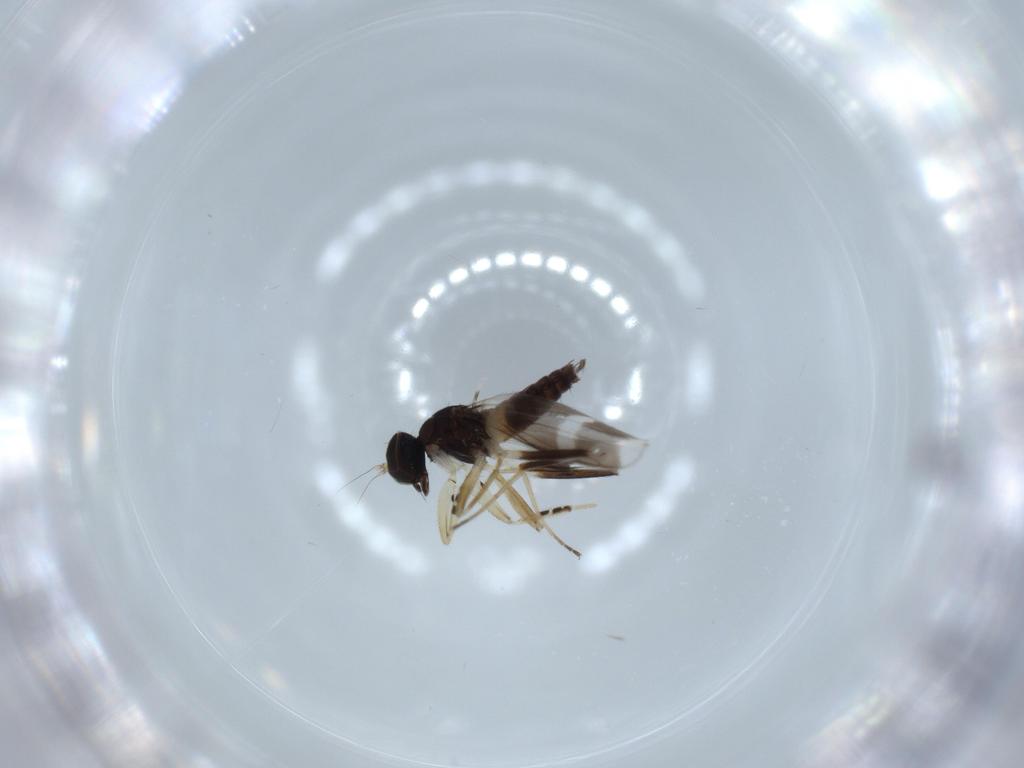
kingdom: Animalia
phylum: Arthropoda
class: Insecta
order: Diptera
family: Hybotidae
